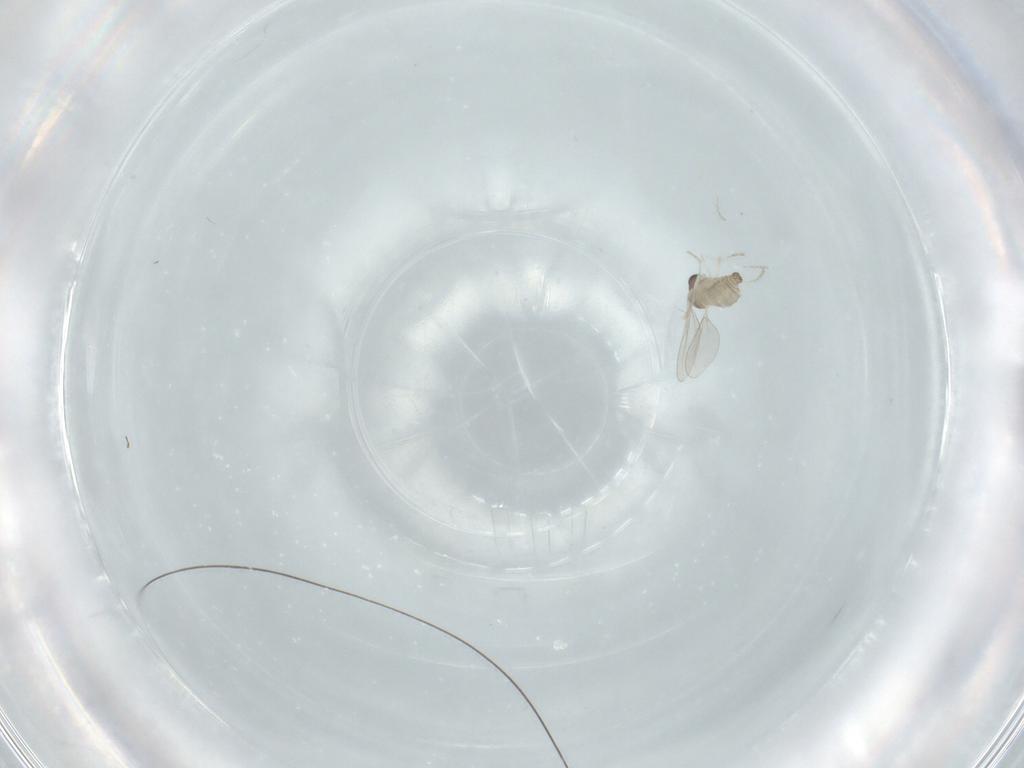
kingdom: Animalia
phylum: Arthropoda
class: Insecta
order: Diptera
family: Cecidomyiidae
